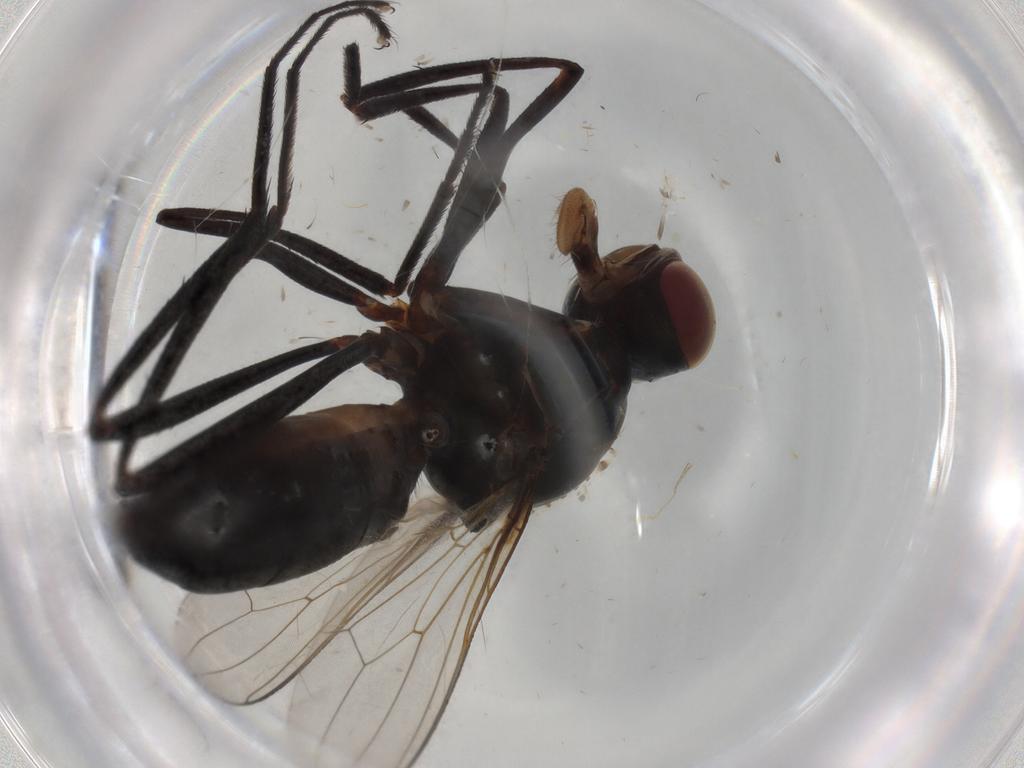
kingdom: Animalia
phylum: Arthropoda
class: Insecta
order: Diptera
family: Sepsidae
